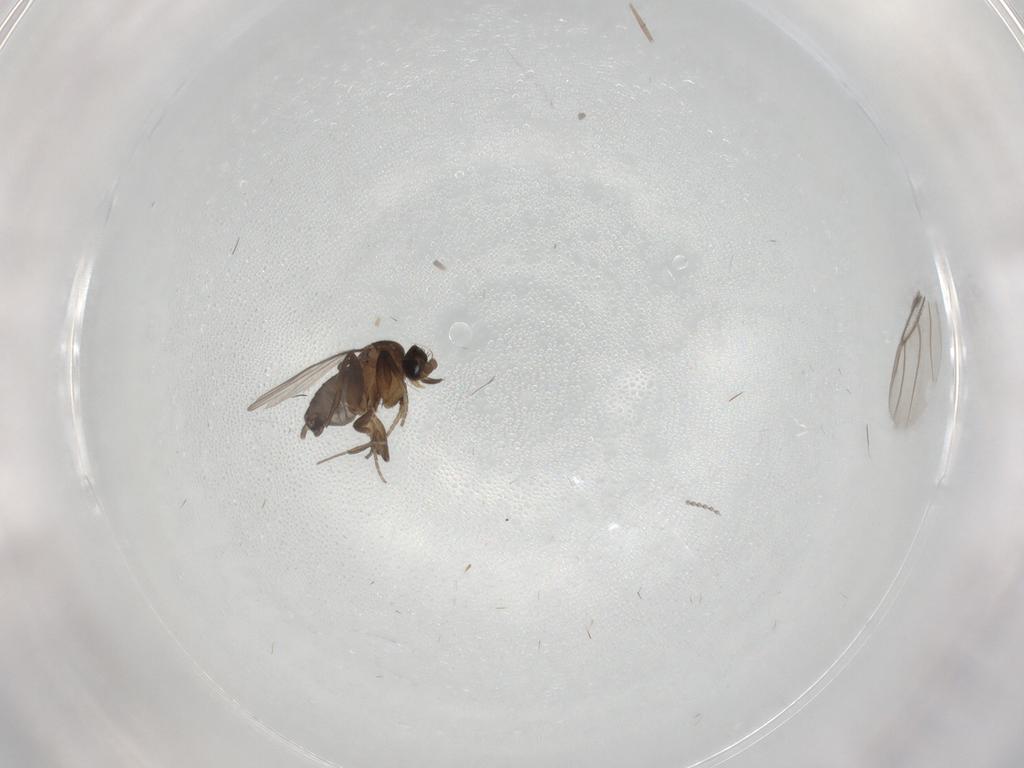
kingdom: Animalia
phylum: Arthropoda
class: Insecta
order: Diptera
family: Phoridae
